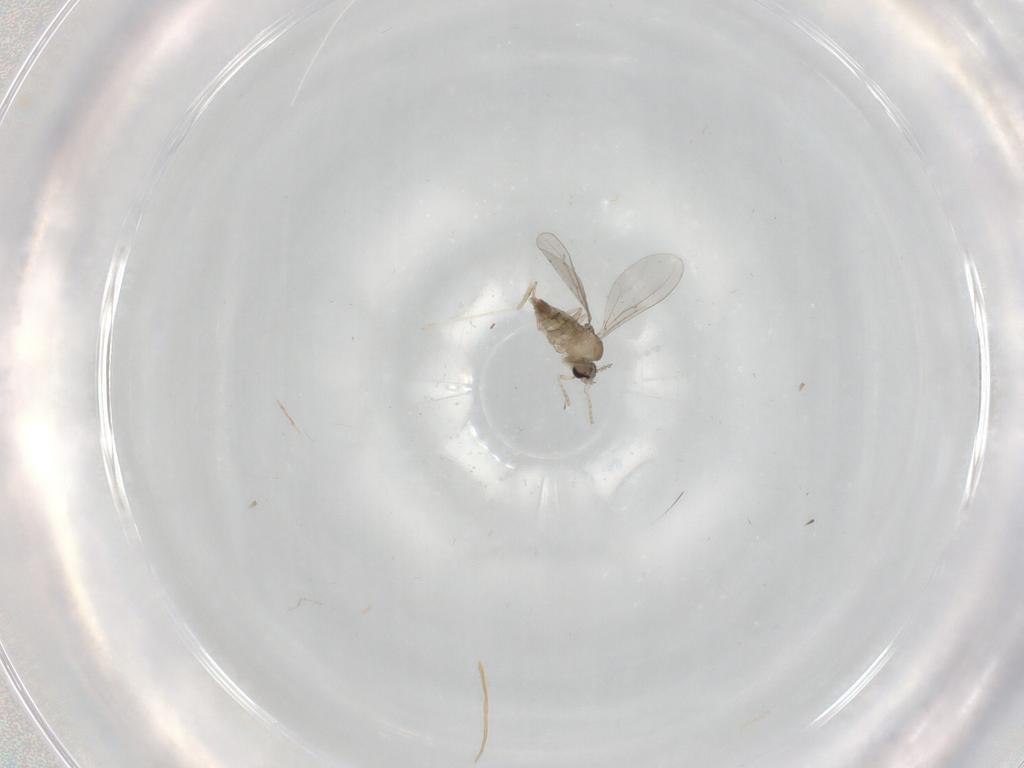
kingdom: Animalia
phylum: Arthropoda
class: Insecta
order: Diptera
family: Cecidomyiidae
